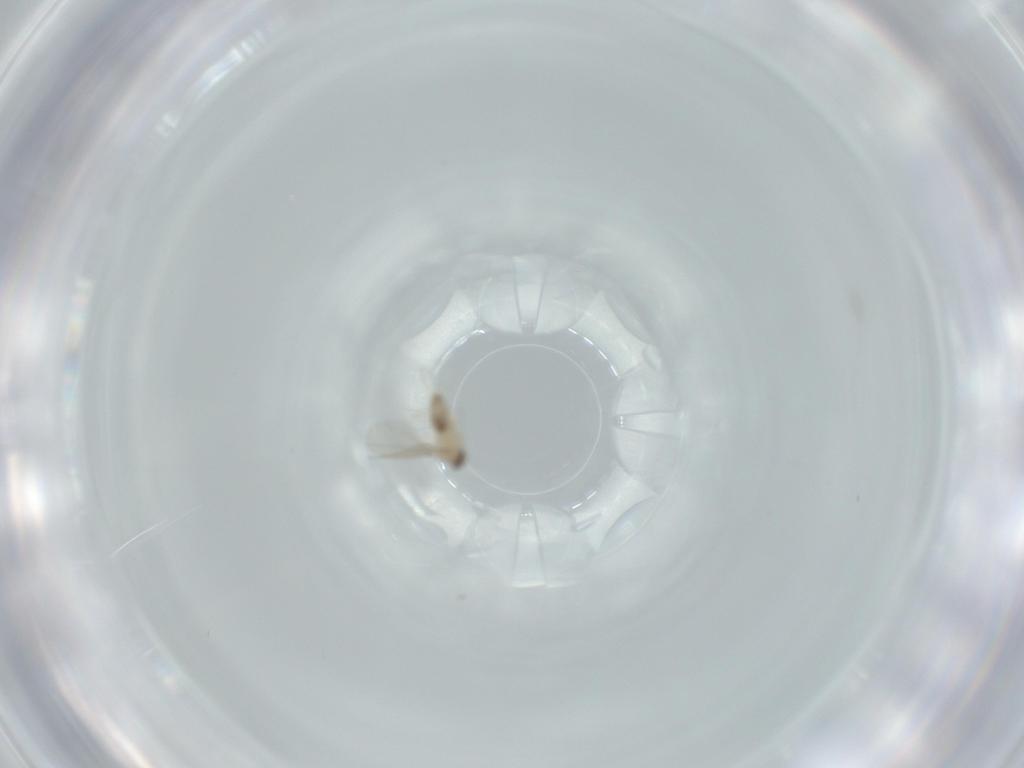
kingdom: Animalia
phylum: Arthropoda
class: Insecta
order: Diptera
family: Cecidomyiidae
